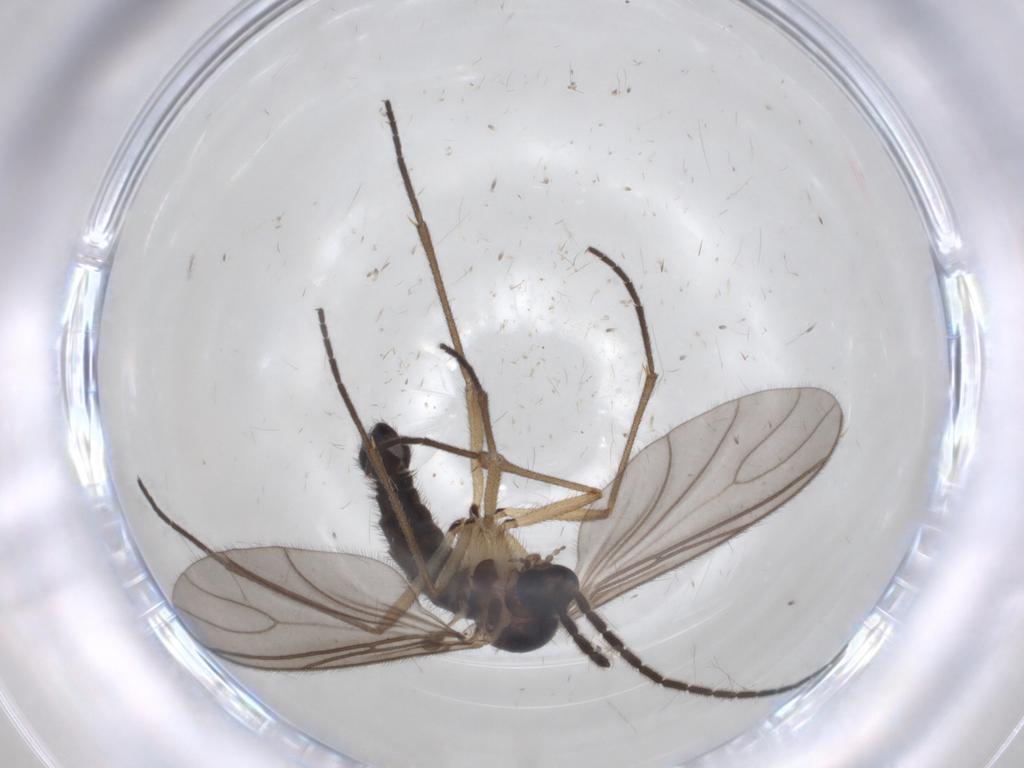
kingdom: Animalia
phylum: Arthropoda
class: Insecta
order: Diptera
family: Sciaridae
